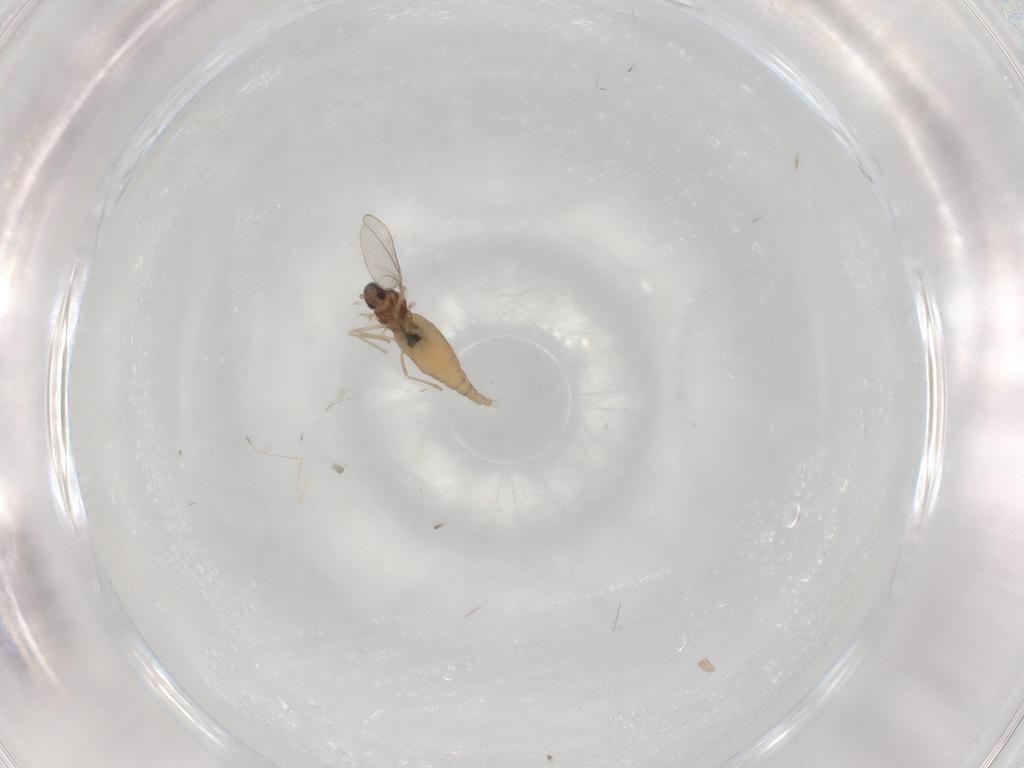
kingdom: Animalia
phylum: Arthropoda
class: Insecta
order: Diptera
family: Cecidomyiidae
